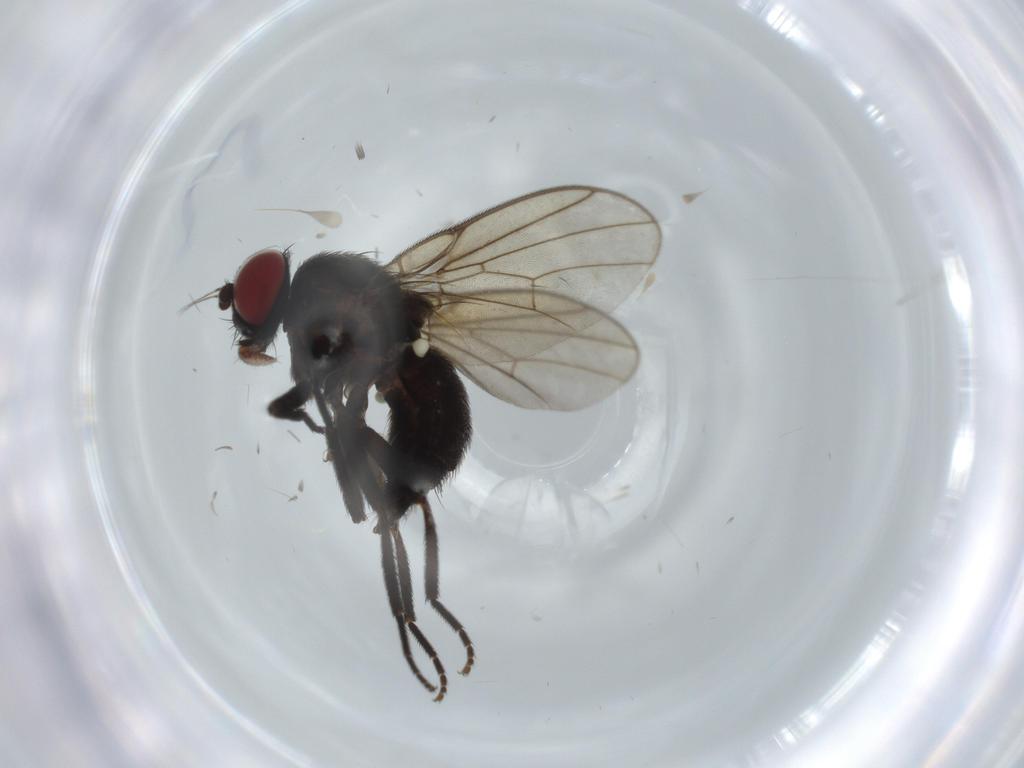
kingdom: Animalia
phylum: Arthropoda
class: Insecta
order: Diptera
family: Agromyzidae
